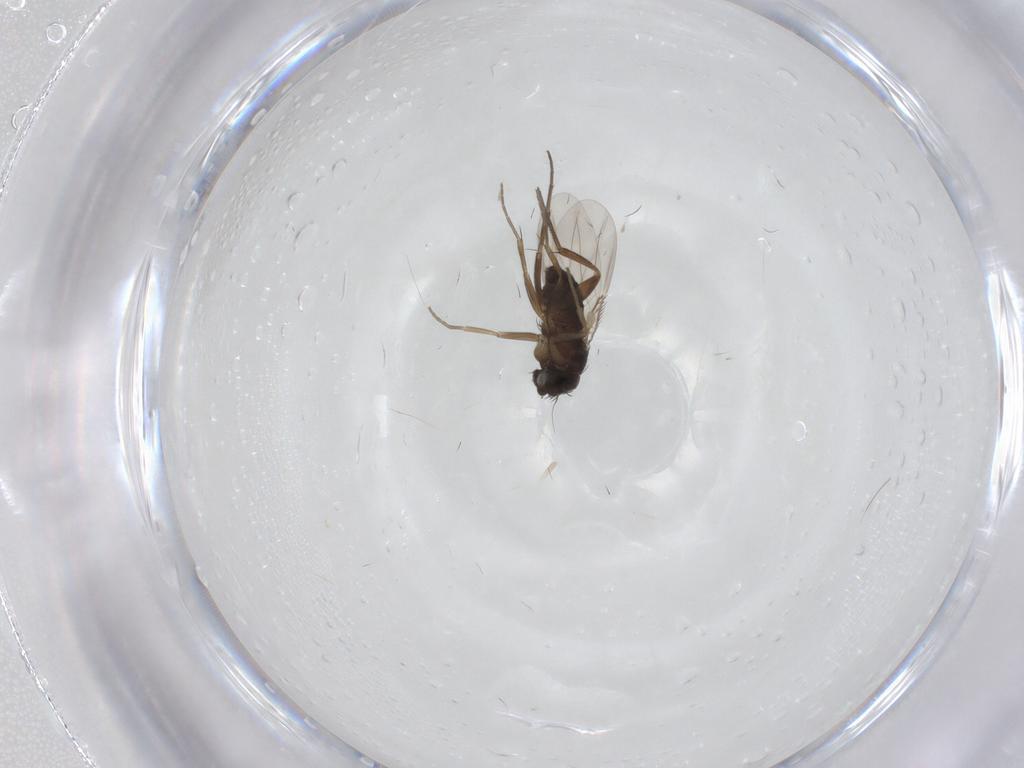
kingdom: Animalia
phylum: Arthropoda
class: Insecta
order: Diptera
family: Phoridae
